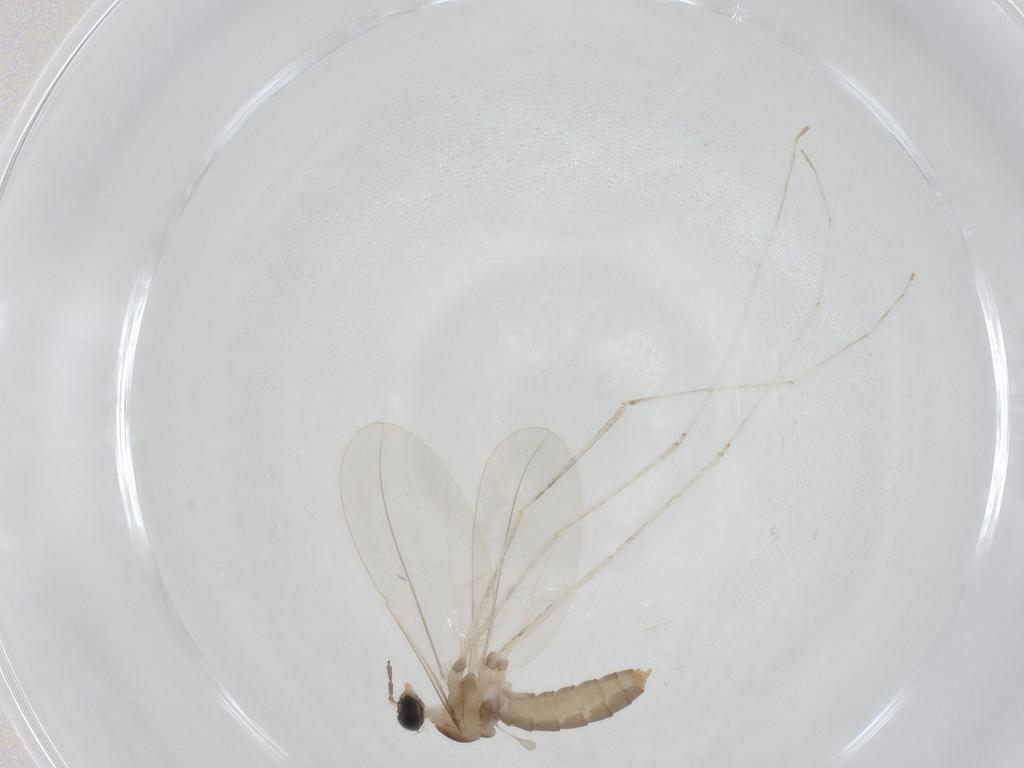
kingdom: Animalia
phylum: Arthropoda
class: Insecta
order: Diptera
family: Cecidomyiidae
